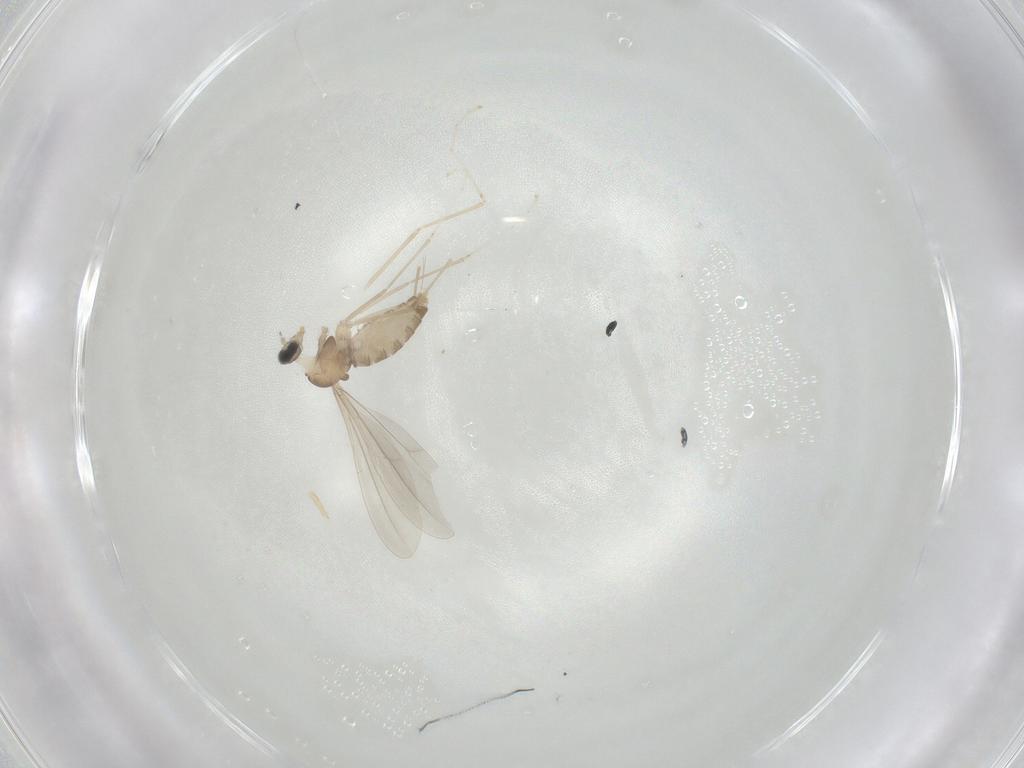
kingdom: Animalia
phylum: Arthropoda
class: Insecta
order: Diptera
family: Cecidomyiidae
